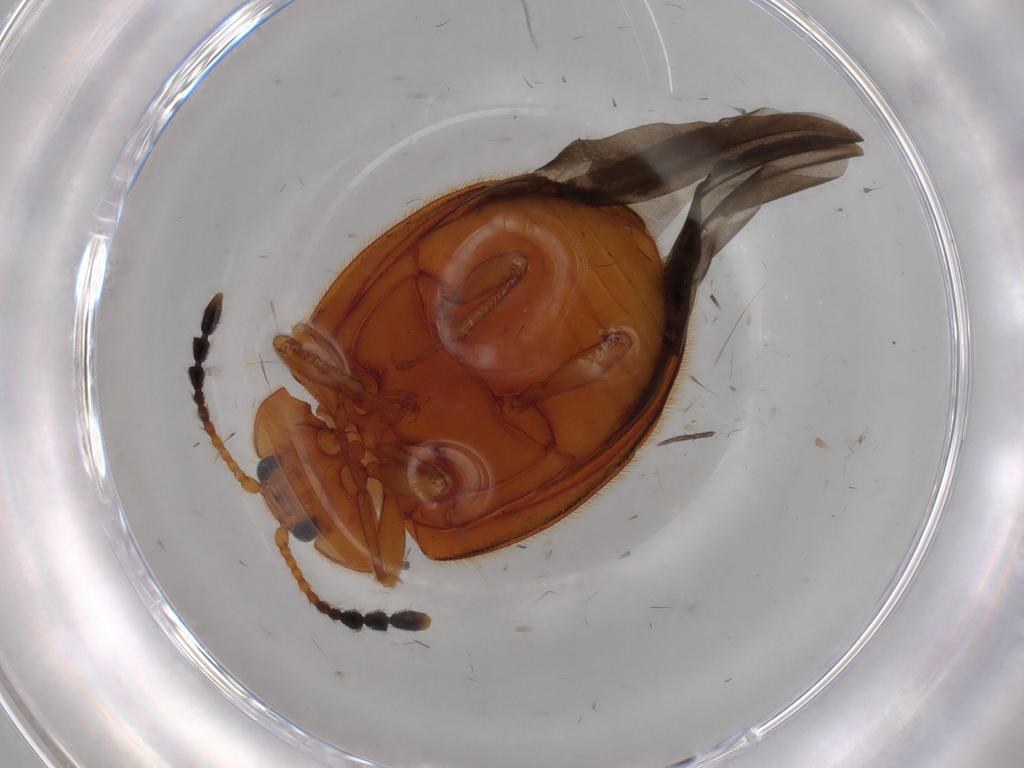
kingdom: Animalia
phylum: Arthropoda
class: Insecta
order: Coleoptera
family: Endomychidae
